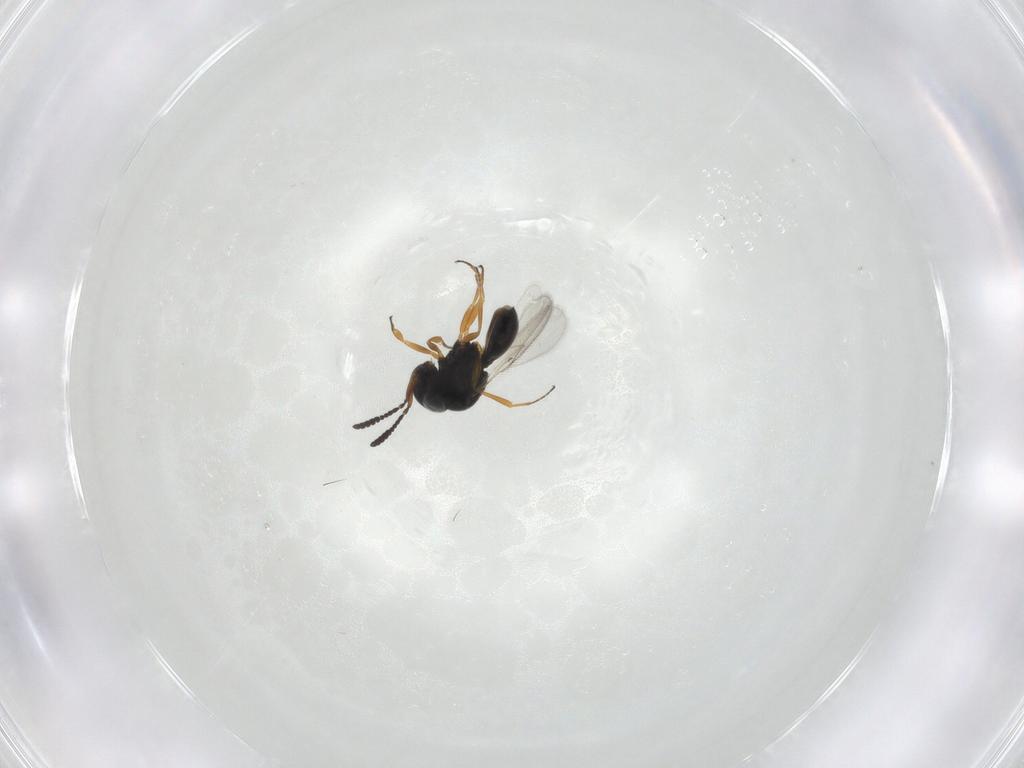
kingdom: Animalia
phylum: Arthropoda
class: Insecta
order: Hymenoptera
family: Scelionidae
